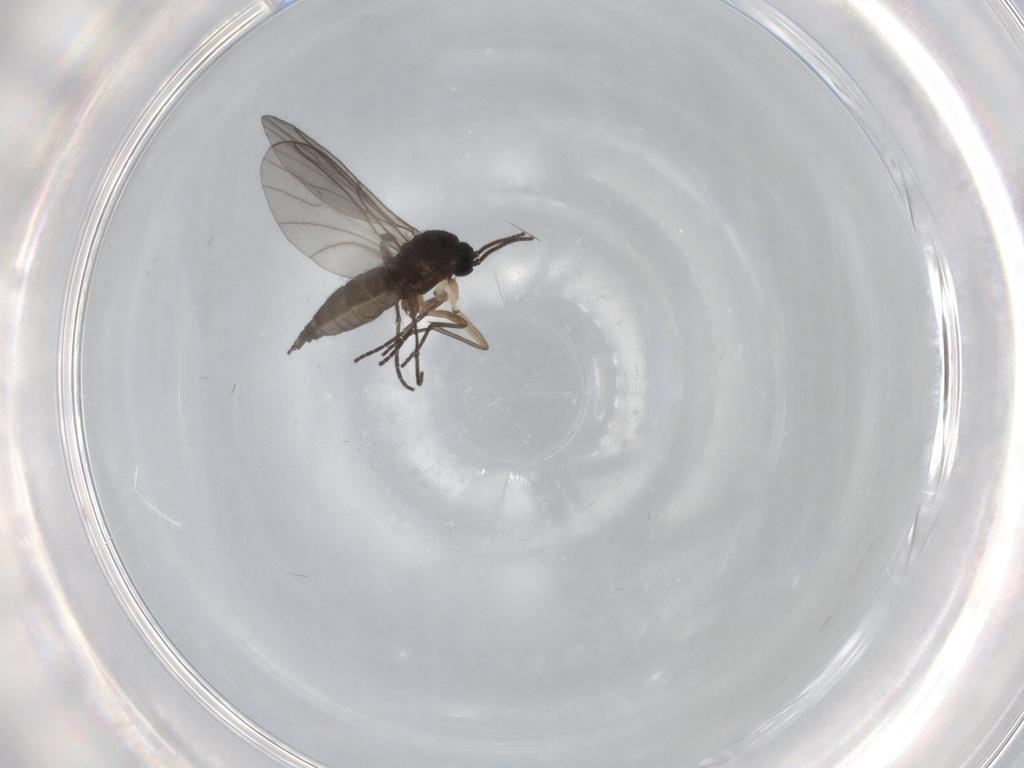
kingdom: Animalia
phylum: Arthropoda
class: Insecta
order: Diptera
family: Sciaridae
